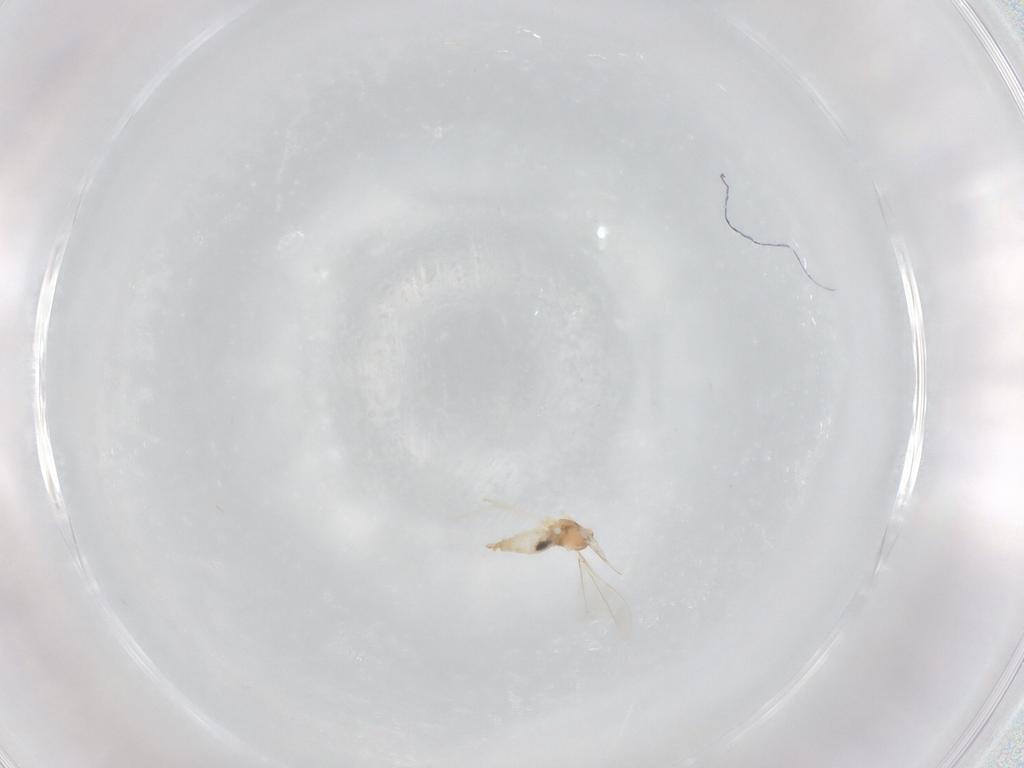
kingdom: Animalia
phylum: Arthropoda
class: Insecta
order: Diptera
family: Cecidomyiidae
